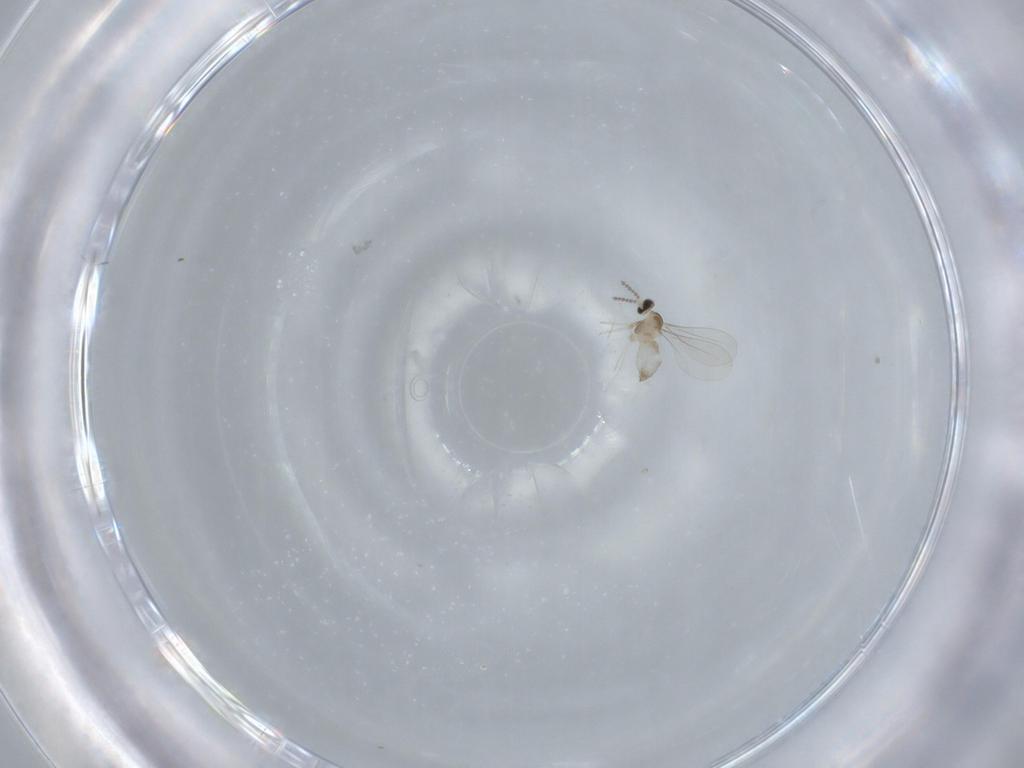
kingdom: Animalia
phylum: Arthropoda
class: Insecta
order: Diptera
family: Cecidomyiidae
